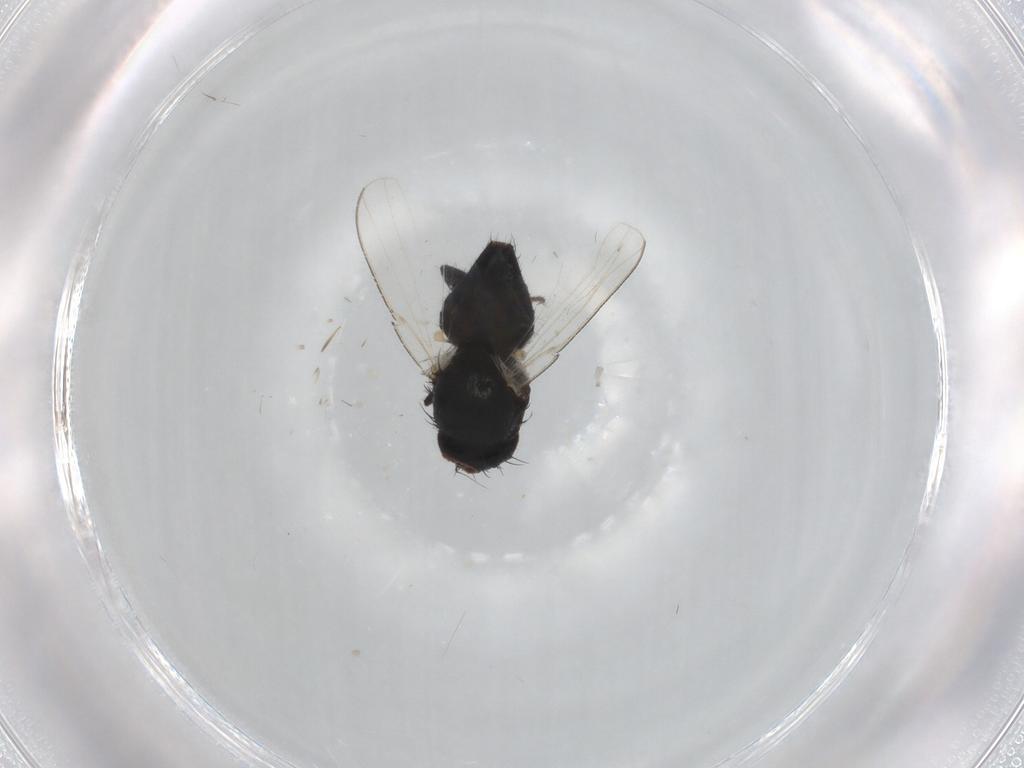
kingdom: Animalia
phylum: Arthropoda
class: Insecta
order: Diptera
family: Milichiidae
